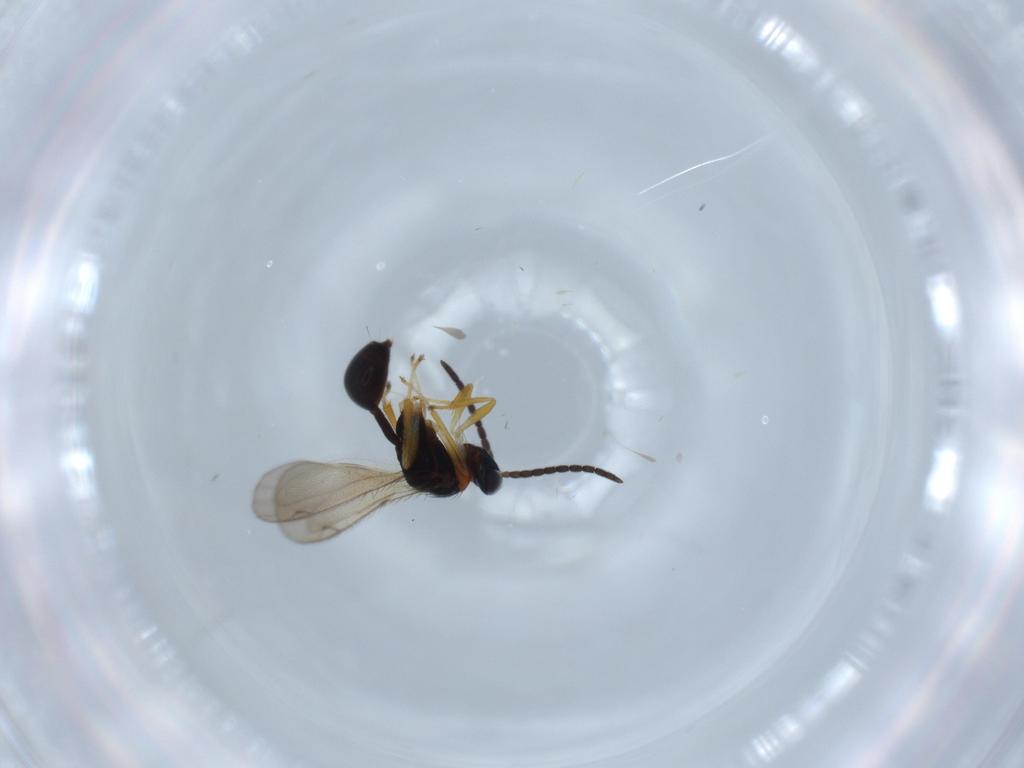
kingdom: Animalia
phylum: Arthropoda
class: Insecta
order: Hymenoptera
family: Diparidae
